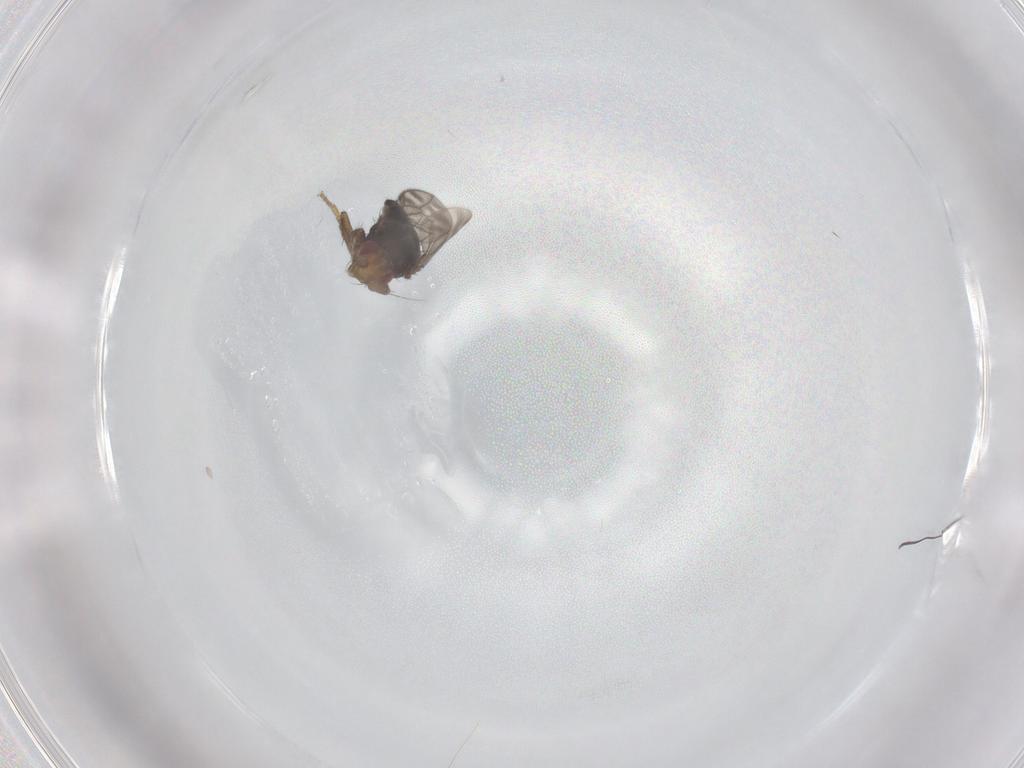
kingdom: Animalia
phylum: Arthropoda
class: Insecta
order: Diptera
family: Sphaeroceridae
